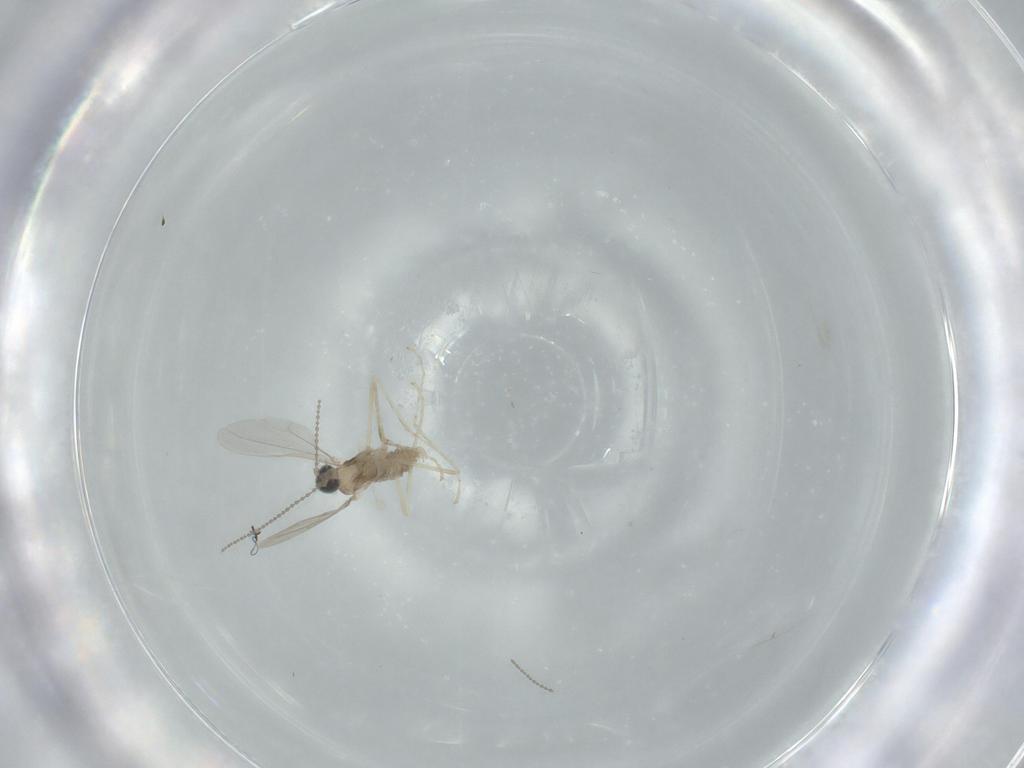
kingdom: Animalia
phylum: Arthropoda
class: Insecta
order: Diptera
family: Cecidomyiidae
